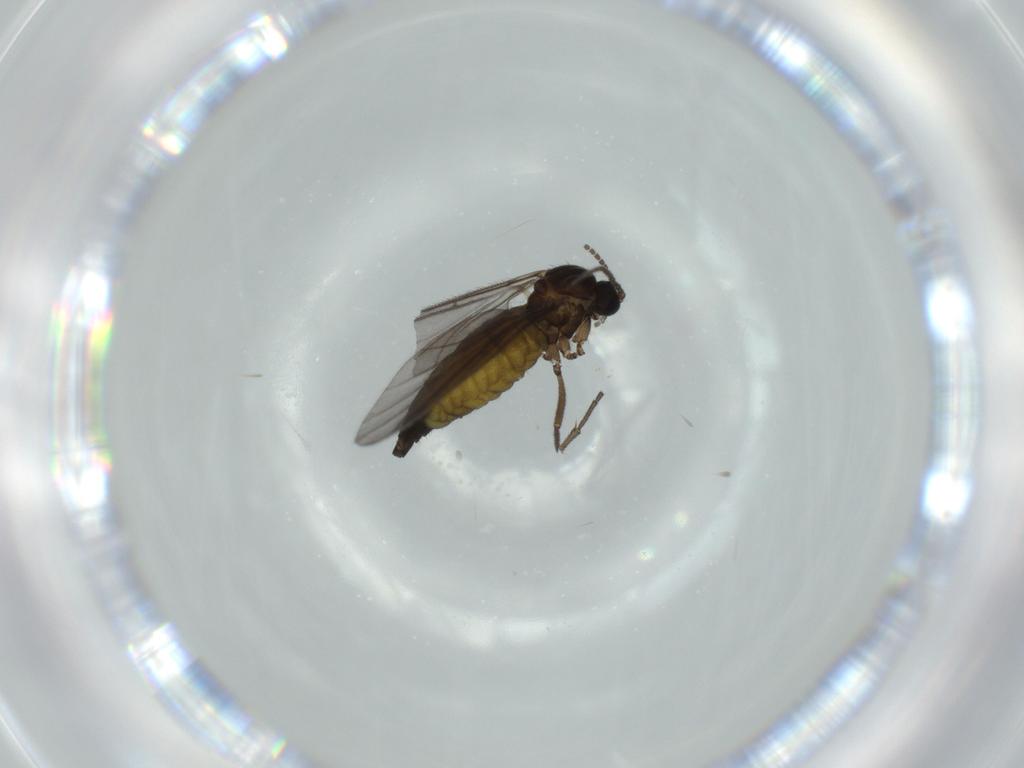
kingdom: Animalia
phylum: Arthropoda
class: Insecta
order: Diptera
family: Sciaridae
